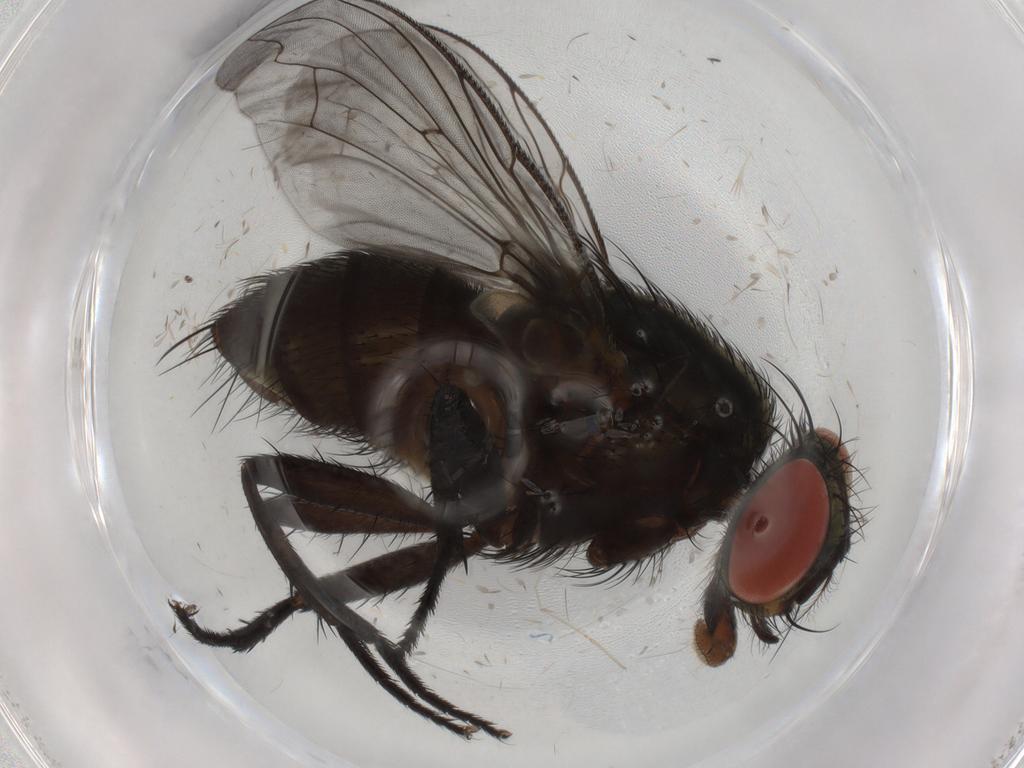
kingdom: Animalia
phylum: Arthropoda
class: Insecta
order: Diptera
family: Sarcophagidae
